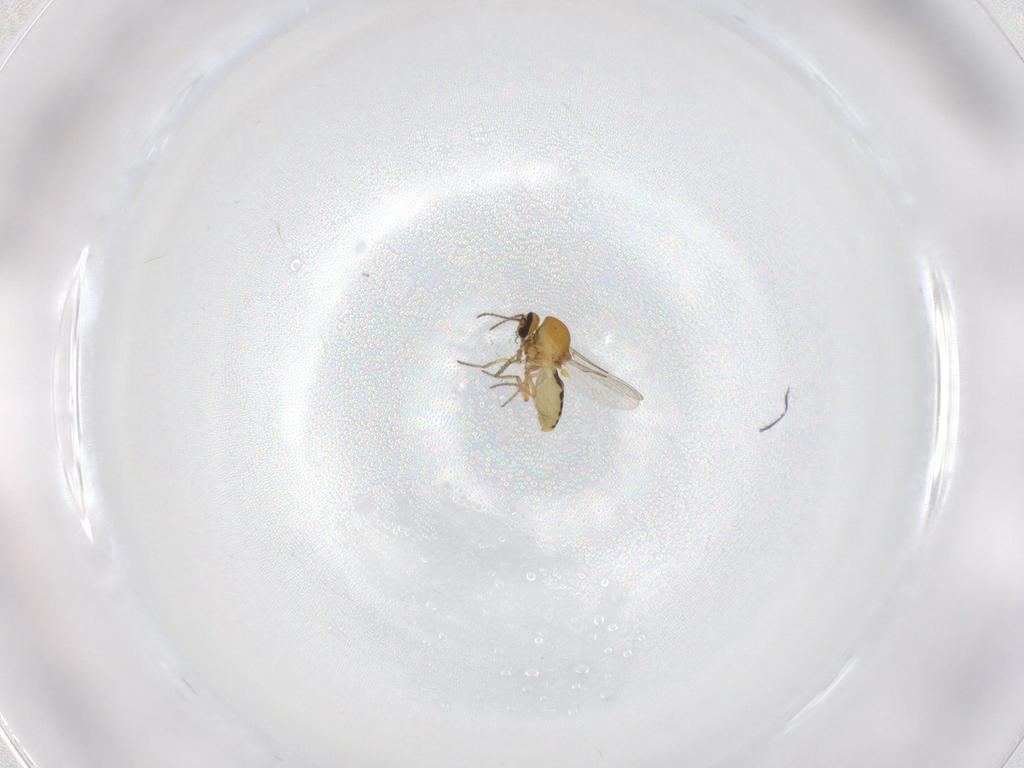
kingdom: Animalia
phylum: Arthropoda
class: Insecta
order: Diptera
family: Ceratopogonidae
